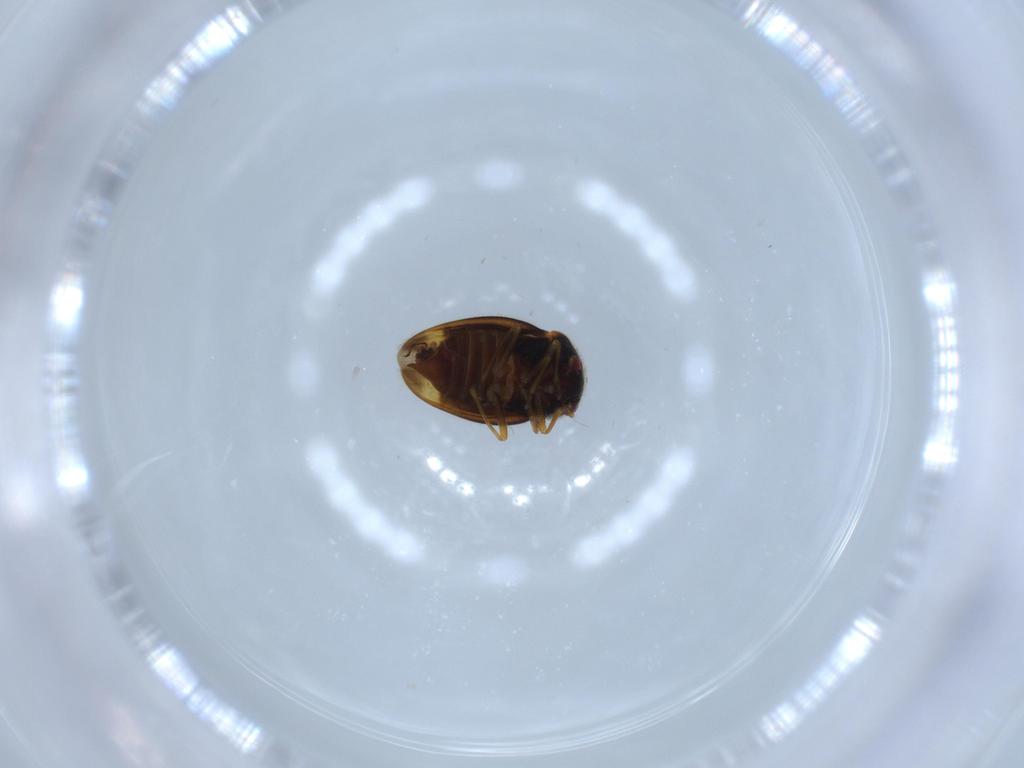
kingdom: Animalia
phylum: Arthropoda
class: Insecta
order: Hemiptera
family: Schizopteridae
